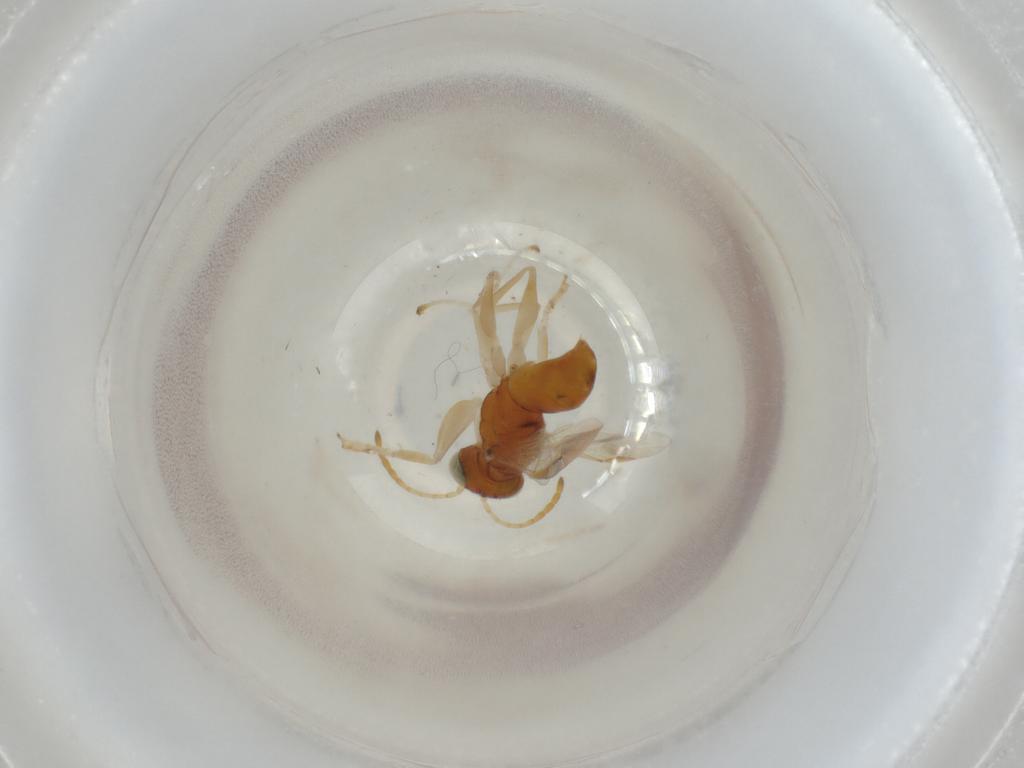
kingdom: Animalia
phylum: Arthropoda
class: Insecta
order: Hymenoptera
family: Dryinidae
